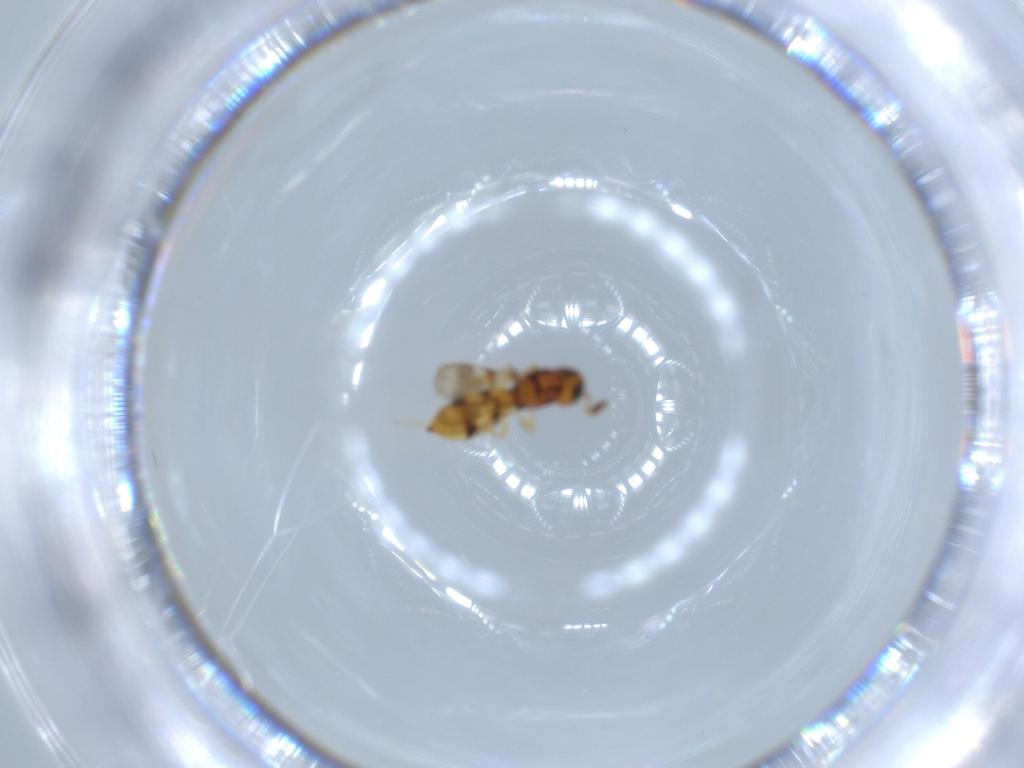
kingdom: Animalia
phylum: Arthropoda
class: Insecta
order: Hymenoptera
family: Scelionidae
